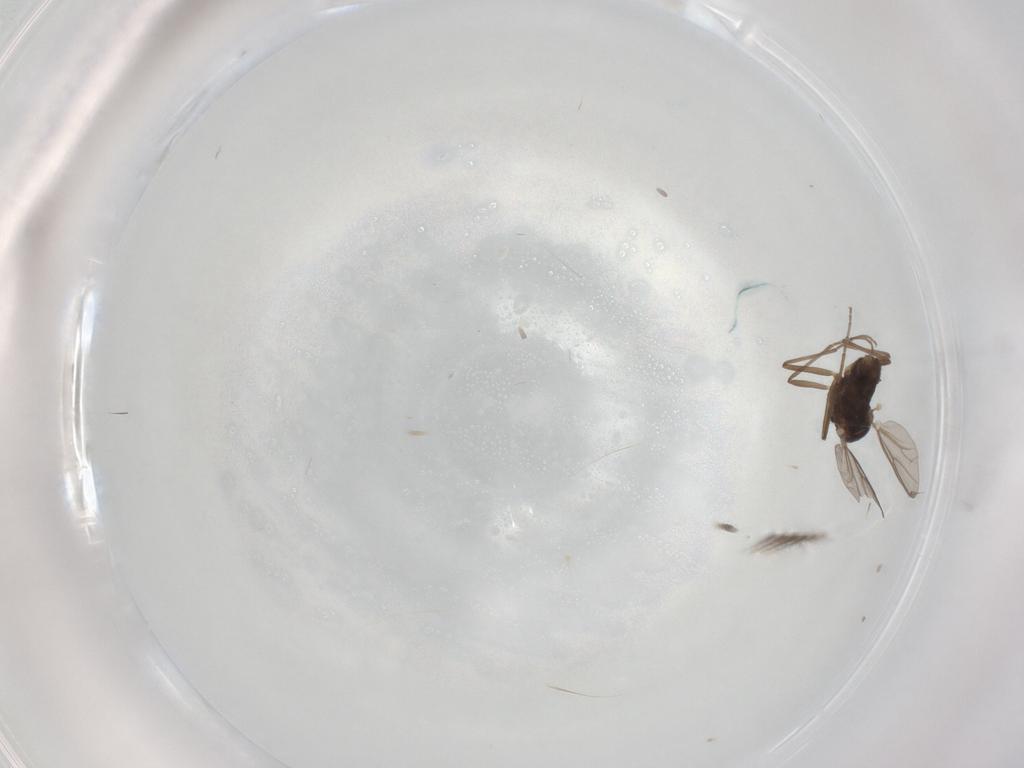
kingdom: Animalia
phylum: Arthropoda
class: Insecta
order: Diptera
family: Chironomidae
